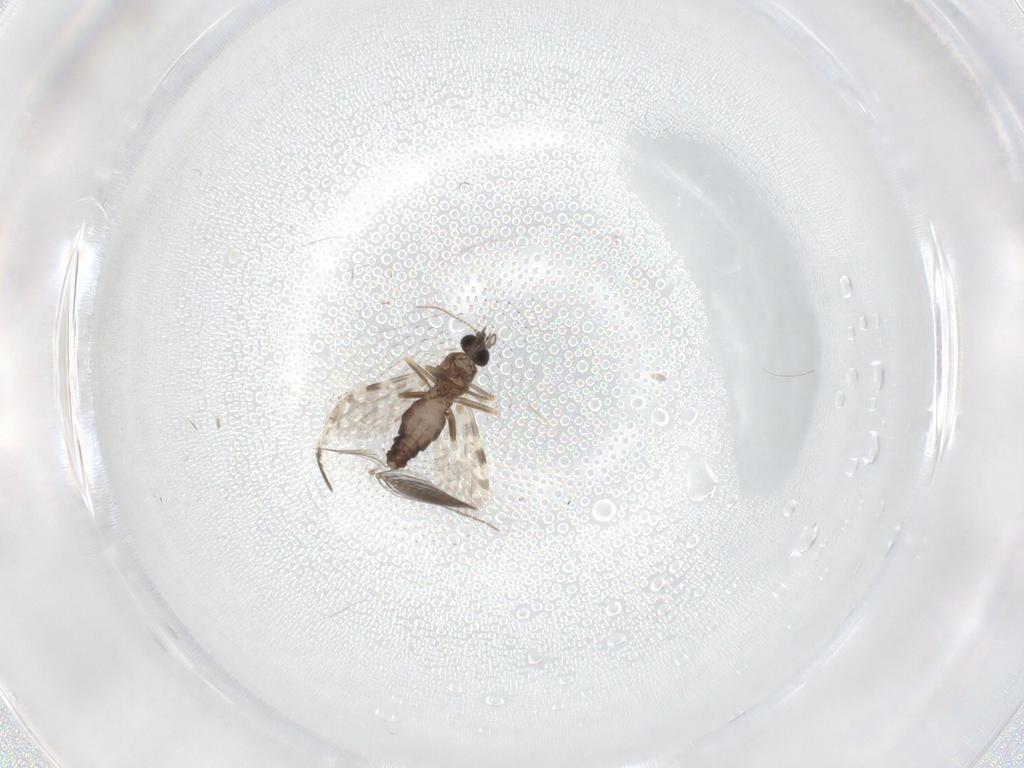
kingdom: Animalia
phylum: Arthropoda
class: Insecta
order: Diptera
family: Ceratopogonidae
